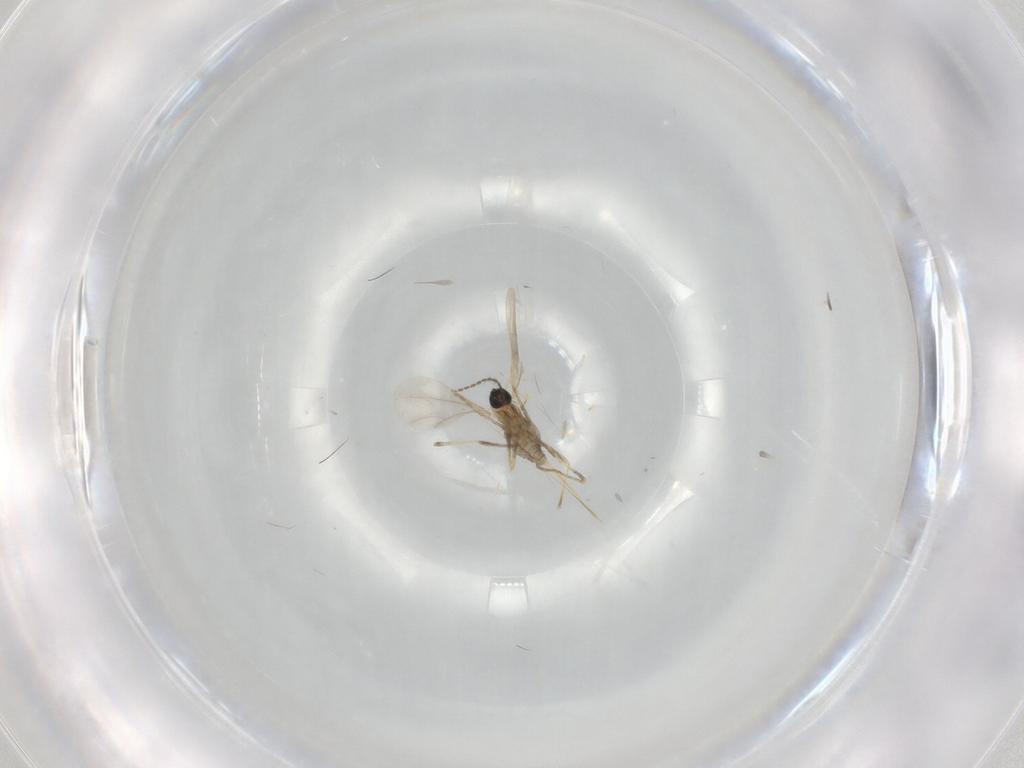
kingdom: Animalia
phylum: Arthropoda
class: Insecta
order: Diptera
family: Cecidomyiidae
